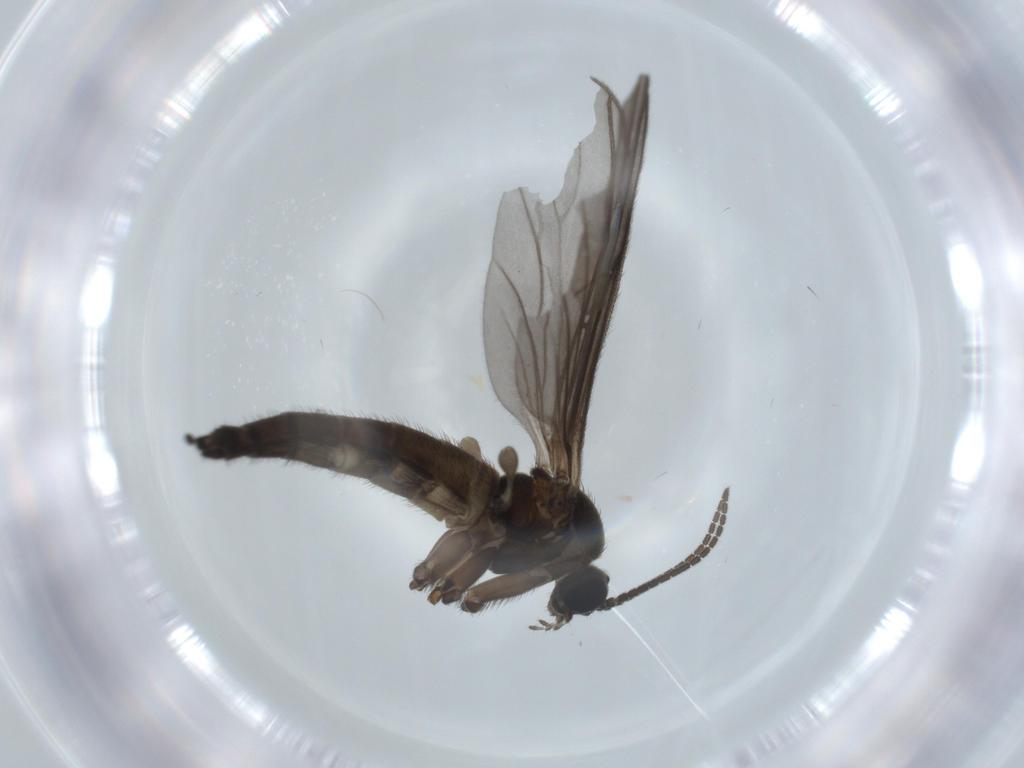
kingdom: Animalia
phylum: Arthropoda
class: Insecta
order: Diptera
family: Sciaridae
